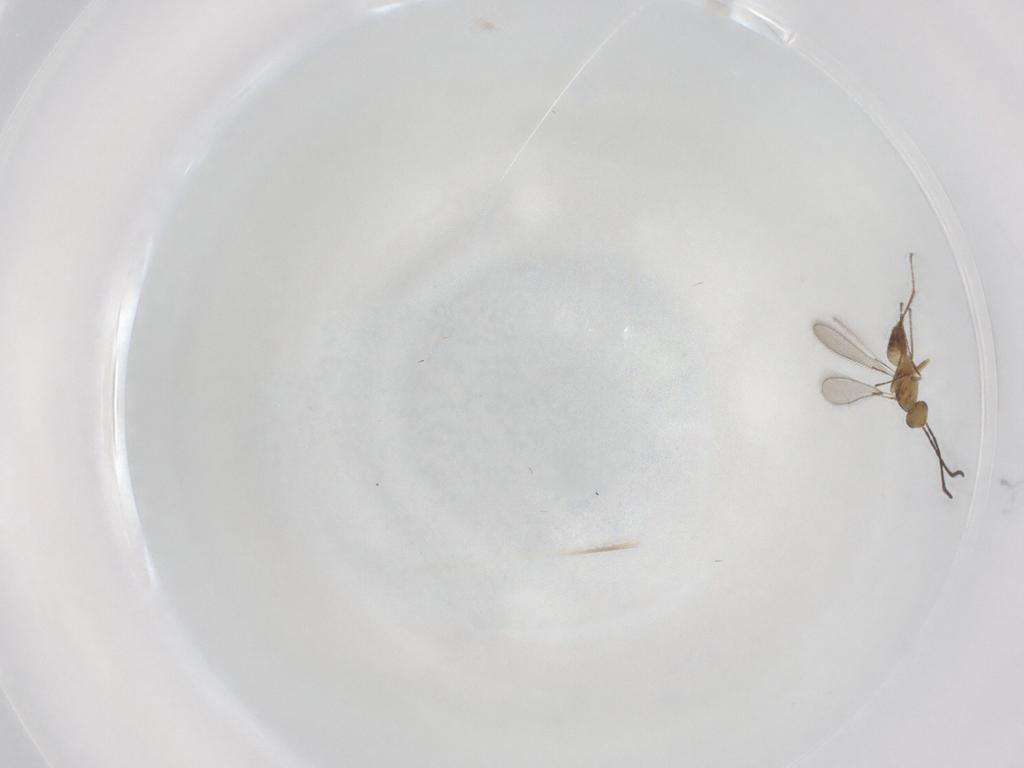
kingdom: Animalia
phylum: Arthropoda
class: Insecta
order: Hymenoptera
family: Mymaridae
